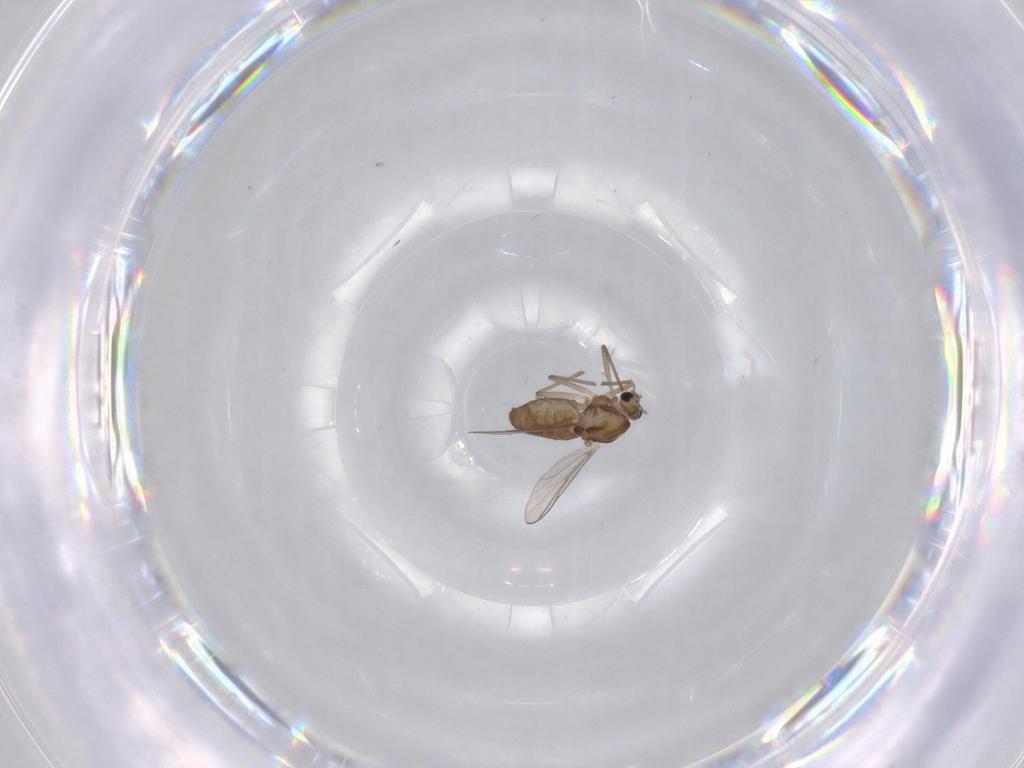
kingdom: Animalia
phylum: Arthropoda
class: Insecta
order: Diptera
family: Chironomidae
